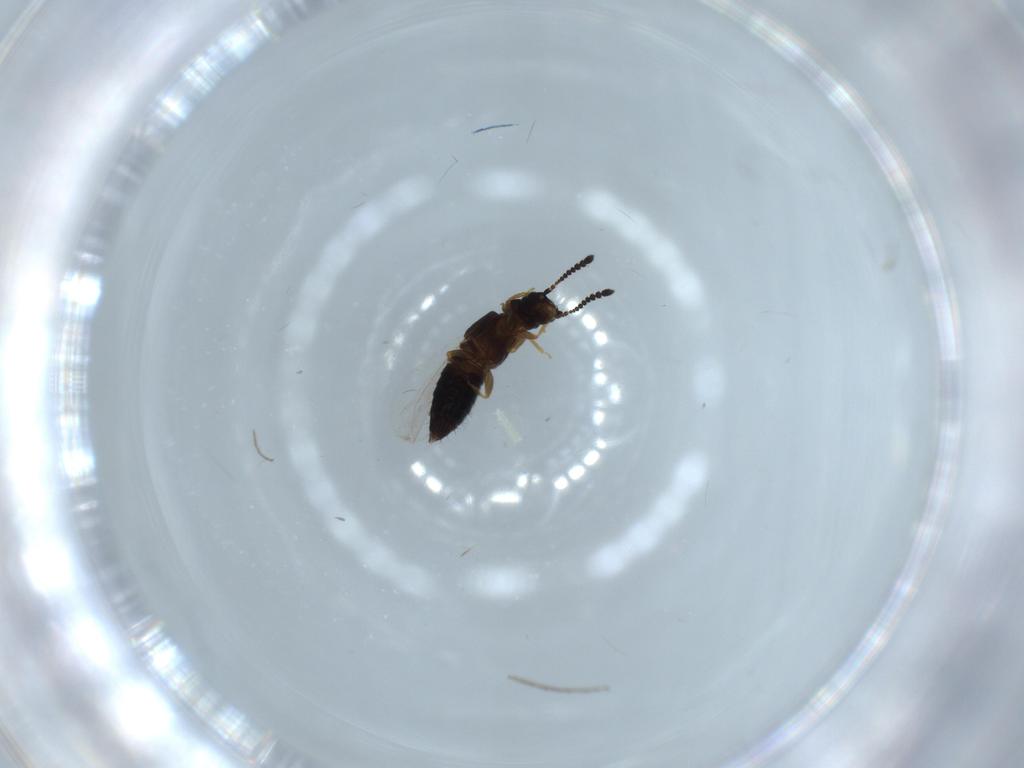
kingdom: Animalia
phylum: Arthropoda
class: Insecta
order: Coleoptera
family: Staphylinidae
